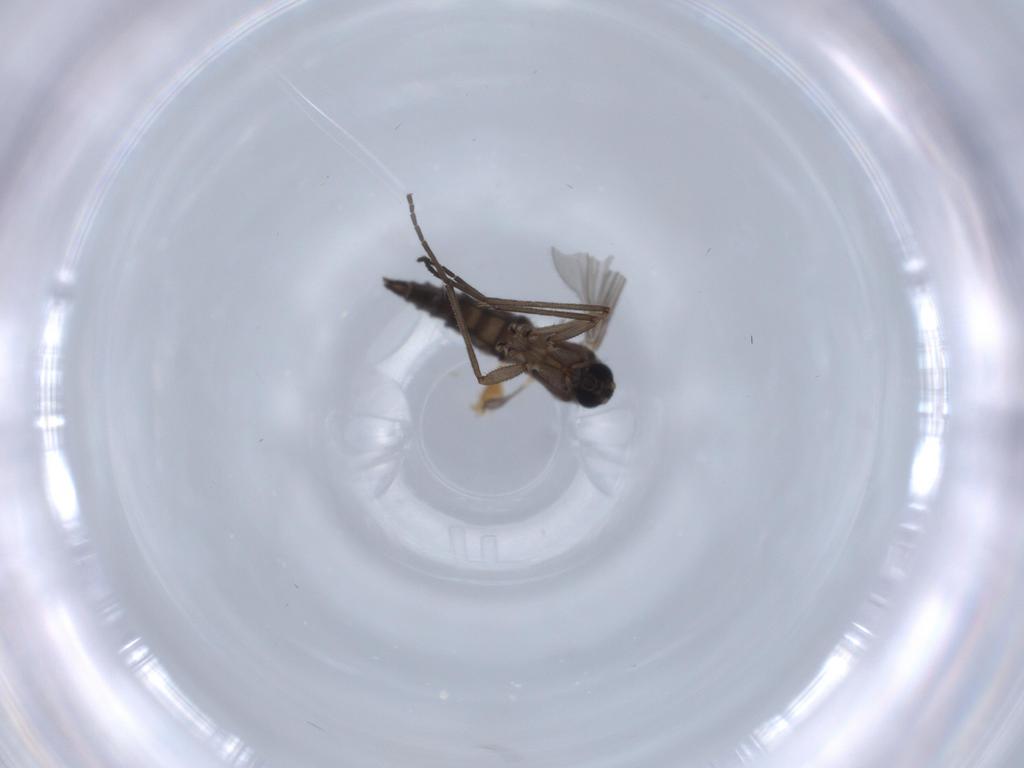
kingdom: Animalia
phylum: Arthropoda
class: Insecta
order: Diptera
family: Sciaridae
